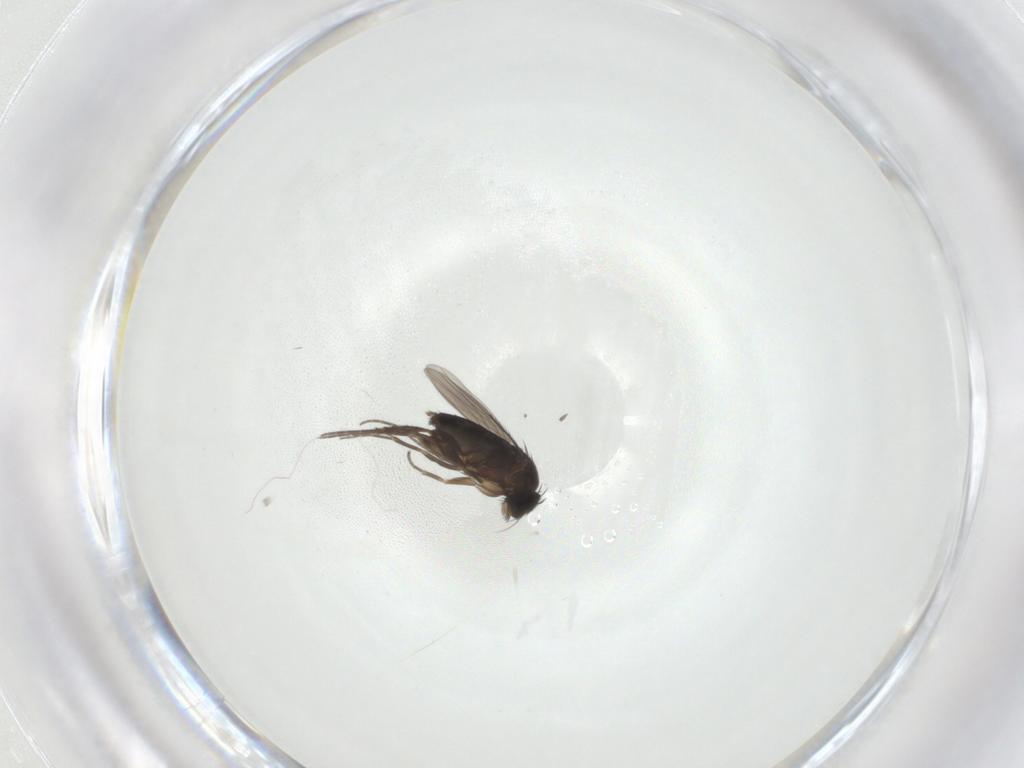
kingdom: Animalia
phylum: Arthropoda
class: Insecta
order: Diptera
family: Phoridae
